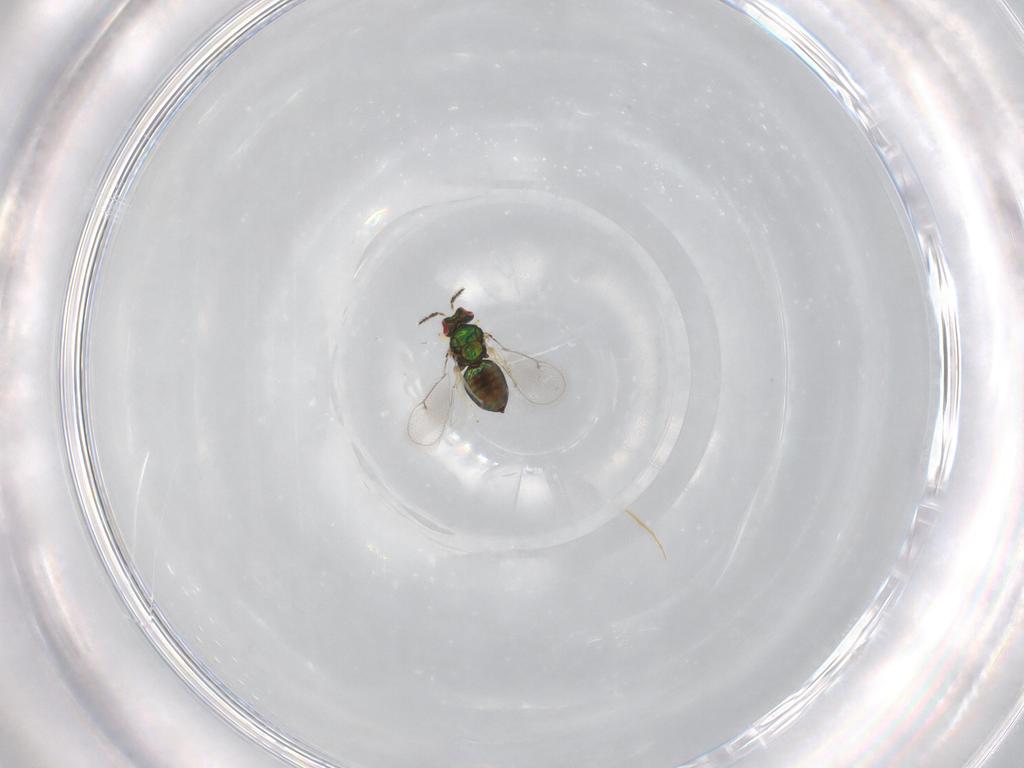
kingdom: Animalia
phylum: Arthropoda
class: Insecta
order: Hymenoptera
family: Eulophidae
